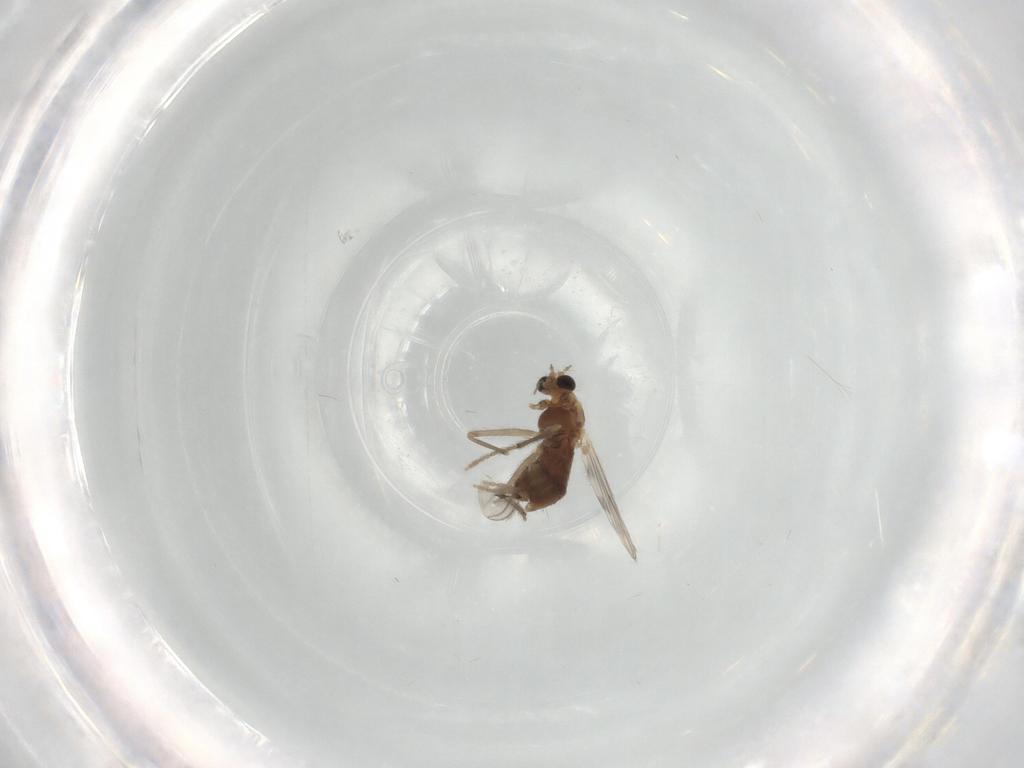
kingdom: Animalia
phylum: Arthropoda
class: Insecta
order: Diptera
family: Chironomidae
